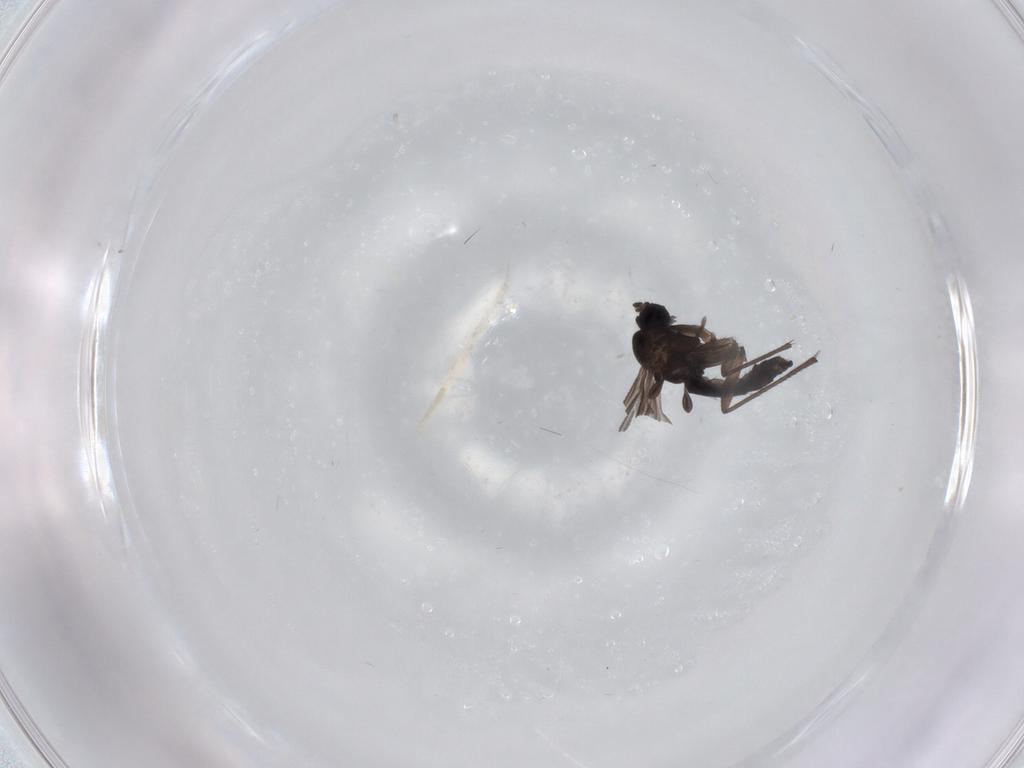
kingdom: Animalia
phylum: Arthropoda
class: Insecta
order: Diptera
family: Sciaridae
